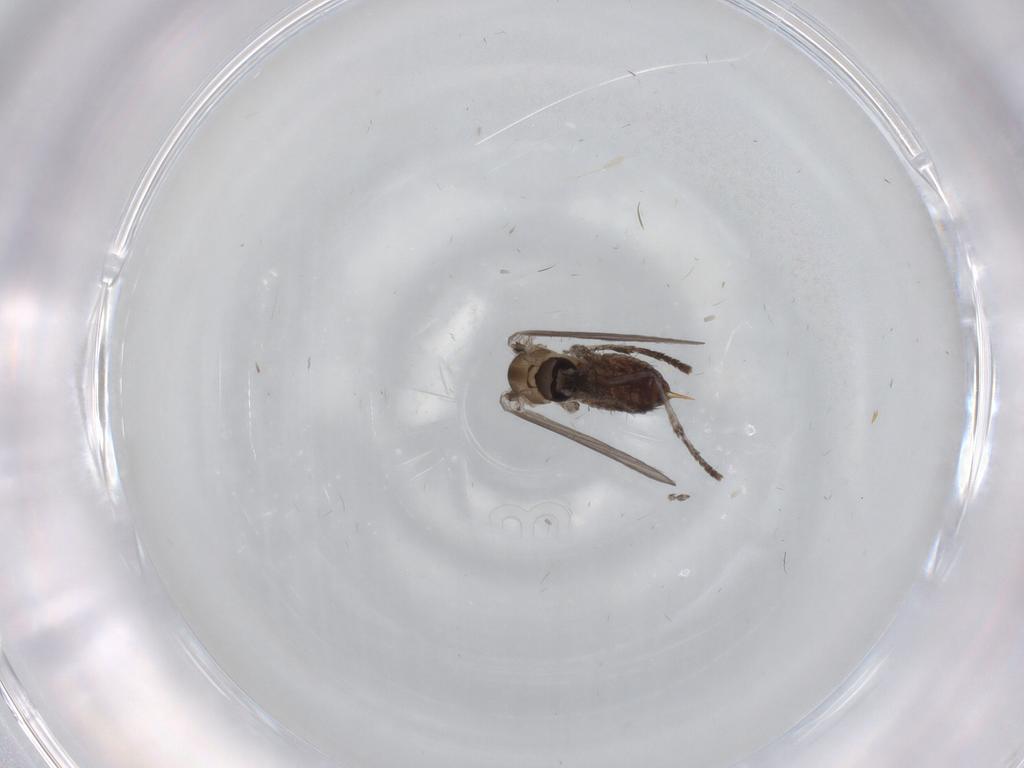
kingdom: Animalia
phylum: Arthropoda
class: Insecta
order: Diptera
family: Psychodidae
